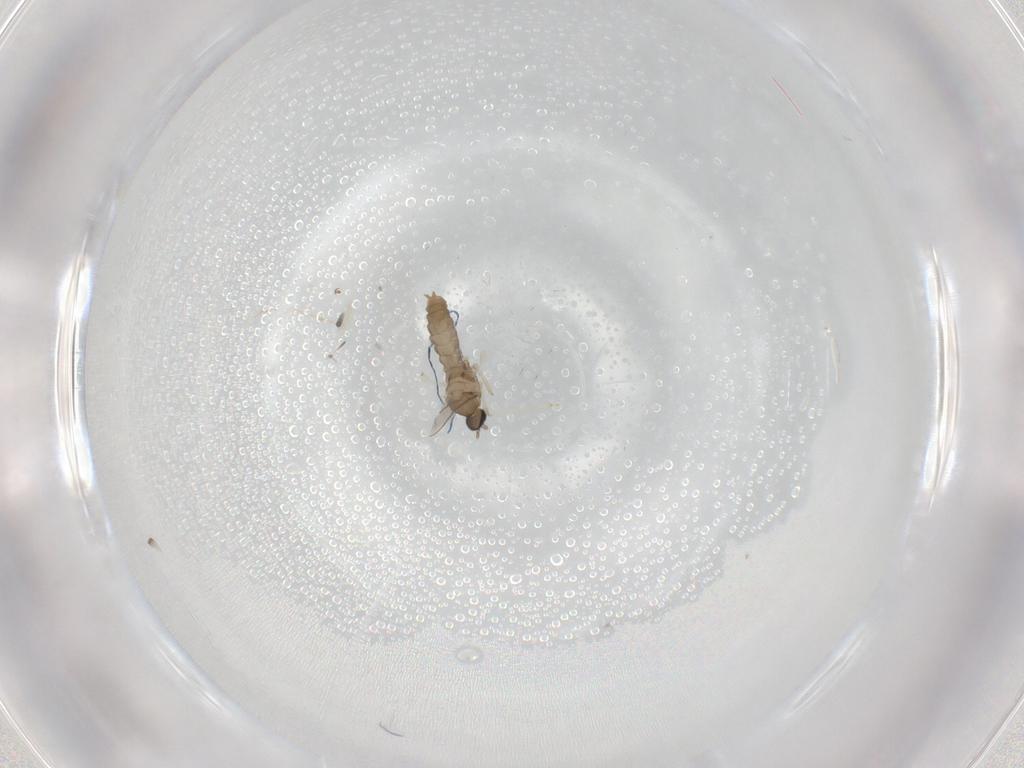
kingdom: Animalia
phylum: Arthropoda
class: Insecta
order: Diptera
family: Psychodidae
